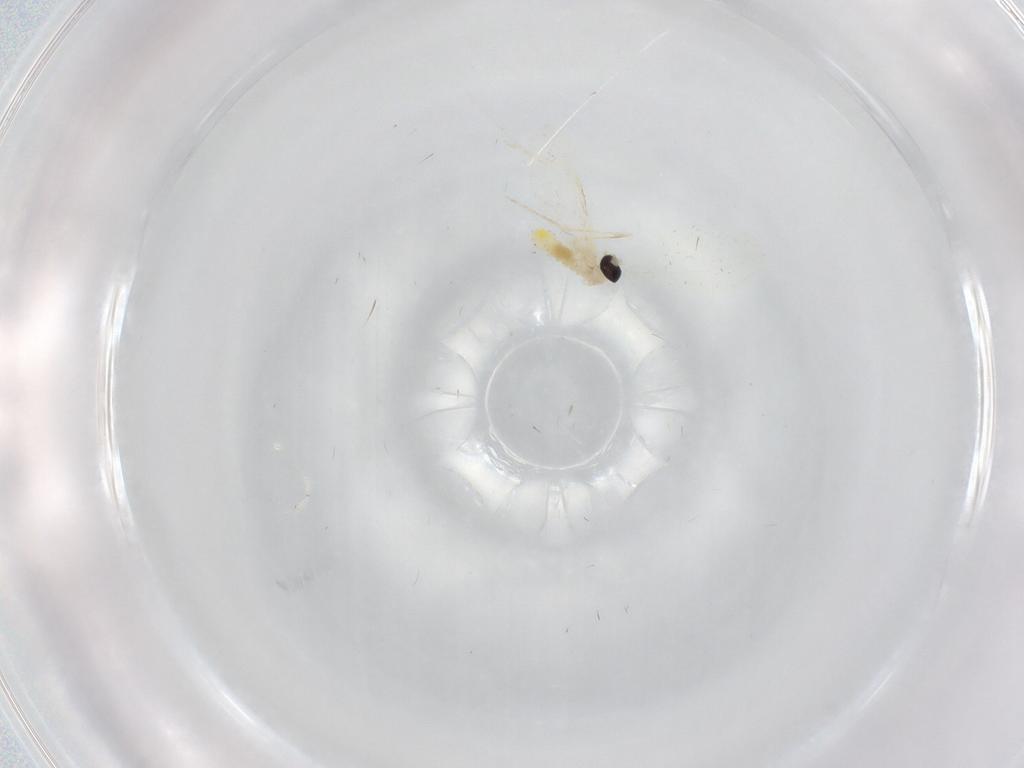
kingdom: Animalia
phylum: Arthropoda
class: Insecta
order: Diptera
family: Cecidomyiidae
